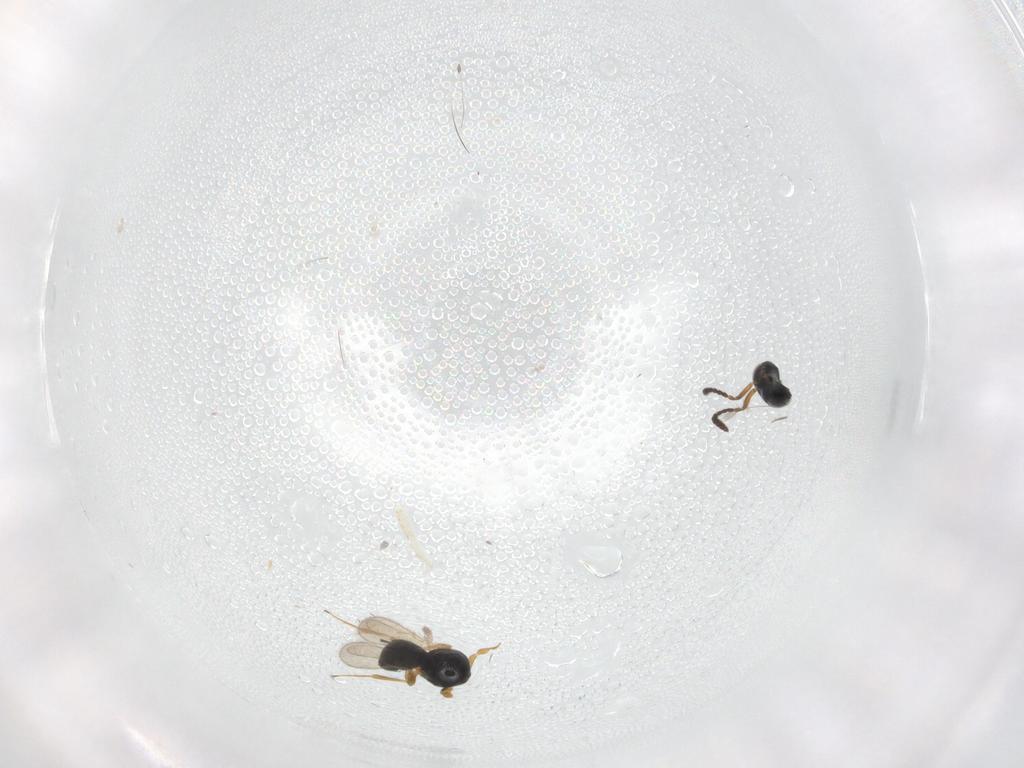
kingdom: Animalia
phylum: Arthropoda
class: Insecta
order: Hymenoptera
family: Scelionidae
